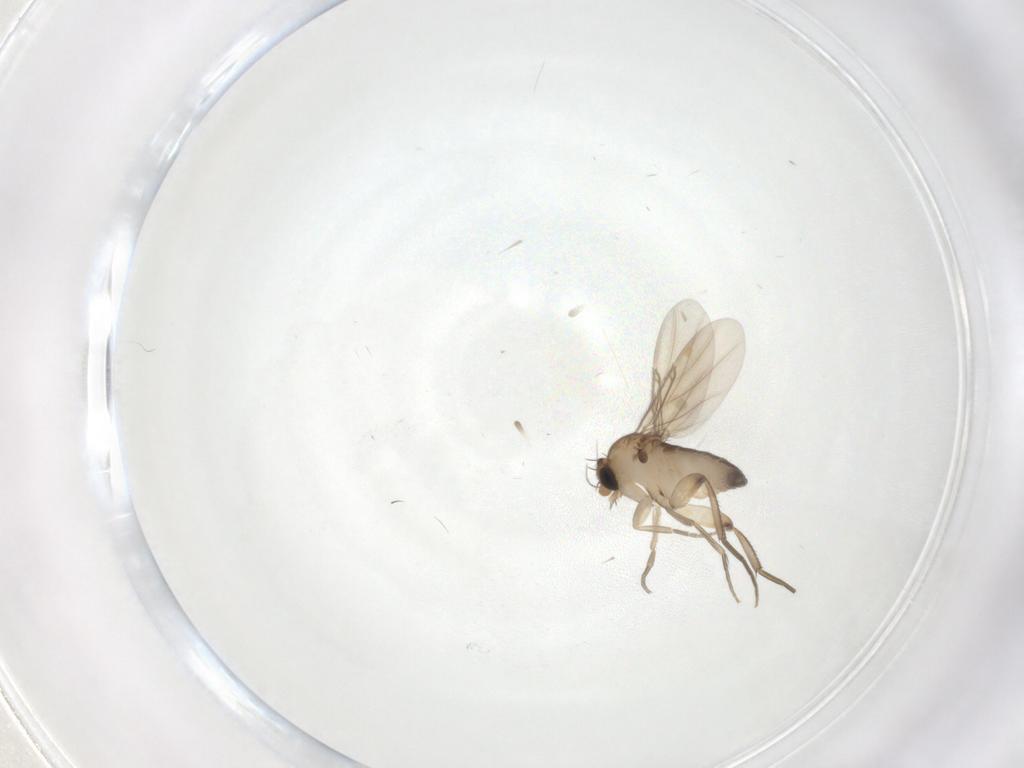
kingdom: Animalia
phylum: Arthropoda
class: Insecta
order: Diptera
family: Phoridae
